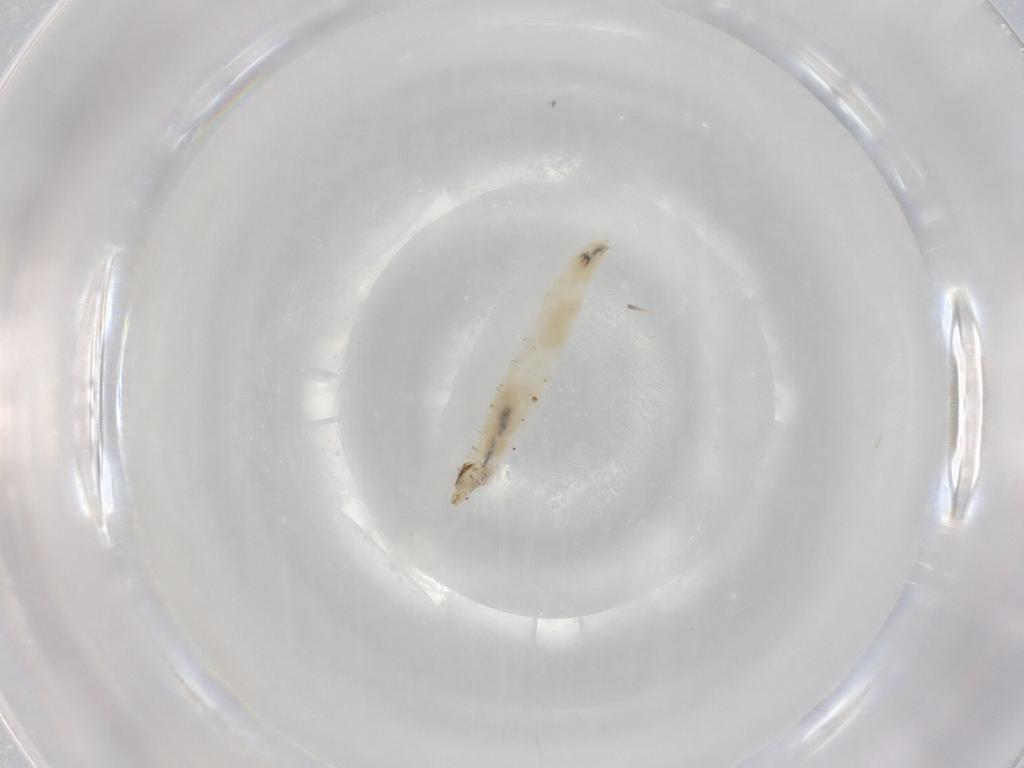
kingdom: Animalia
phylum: Arthropoda
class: Insecta
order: Diptera
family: Drosophilidae
